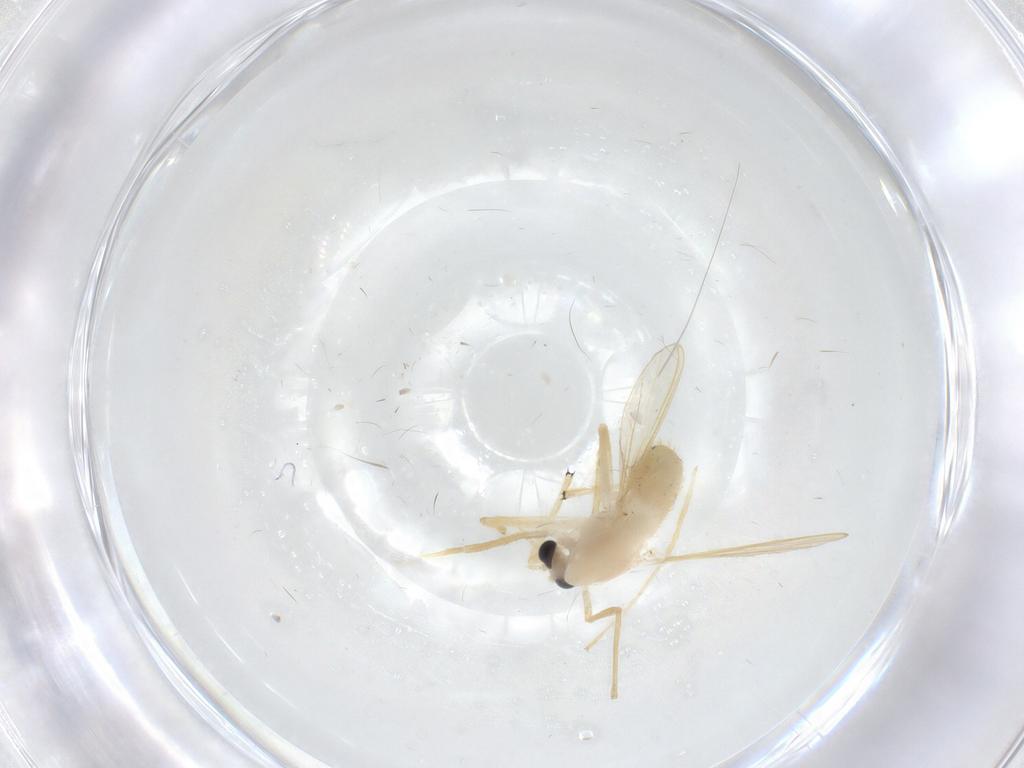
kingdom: Animalia
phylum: Arthropoda
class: Insecta
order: Diptera
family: Chironomidae
